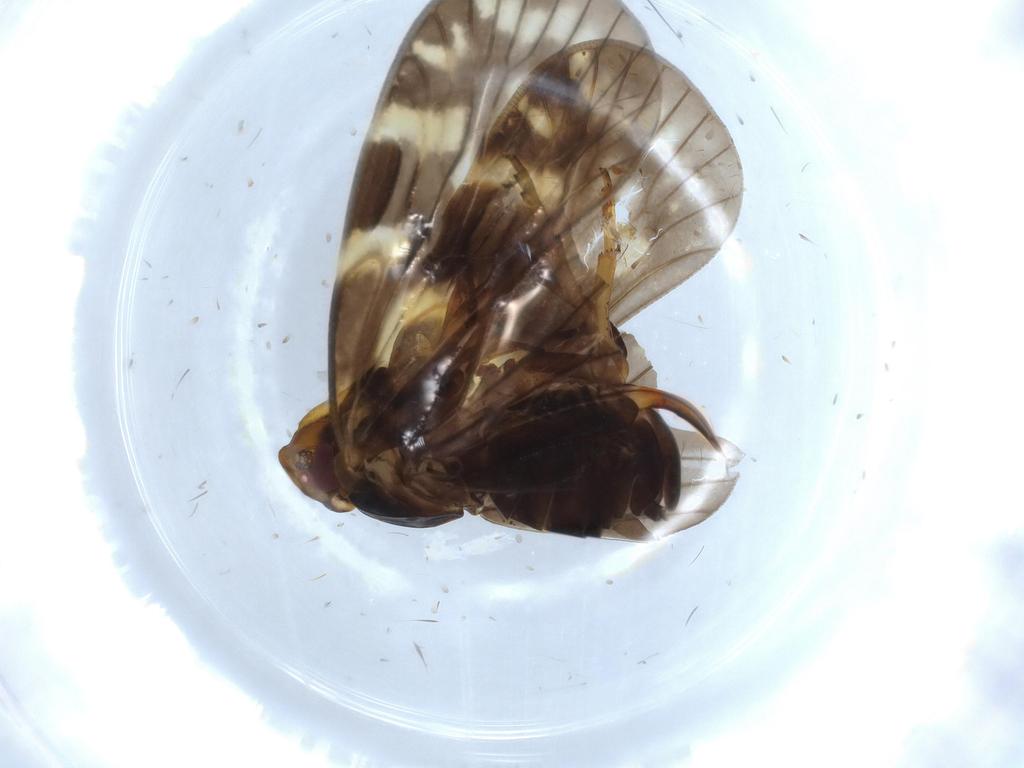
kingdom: Animalia
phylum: Arthropoda
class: Insecta
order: Hemiptera
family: Cixiidae
